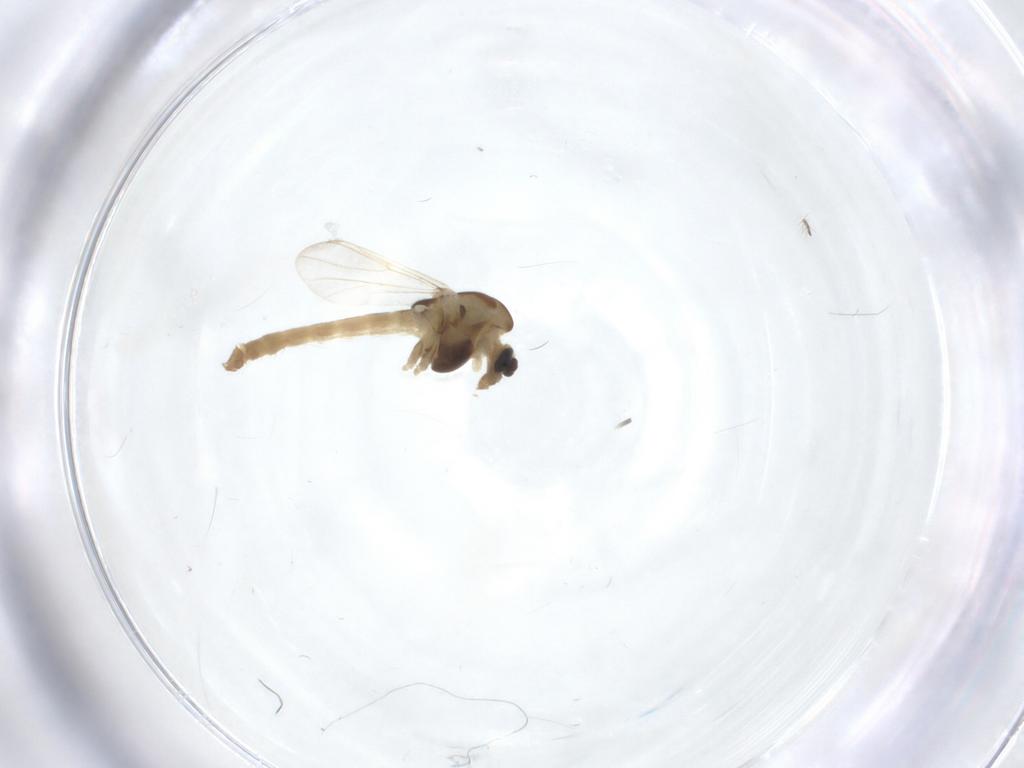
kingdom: Animalia
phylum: Arthropoda
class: Insecta
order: Diptera
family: Chironomidae
